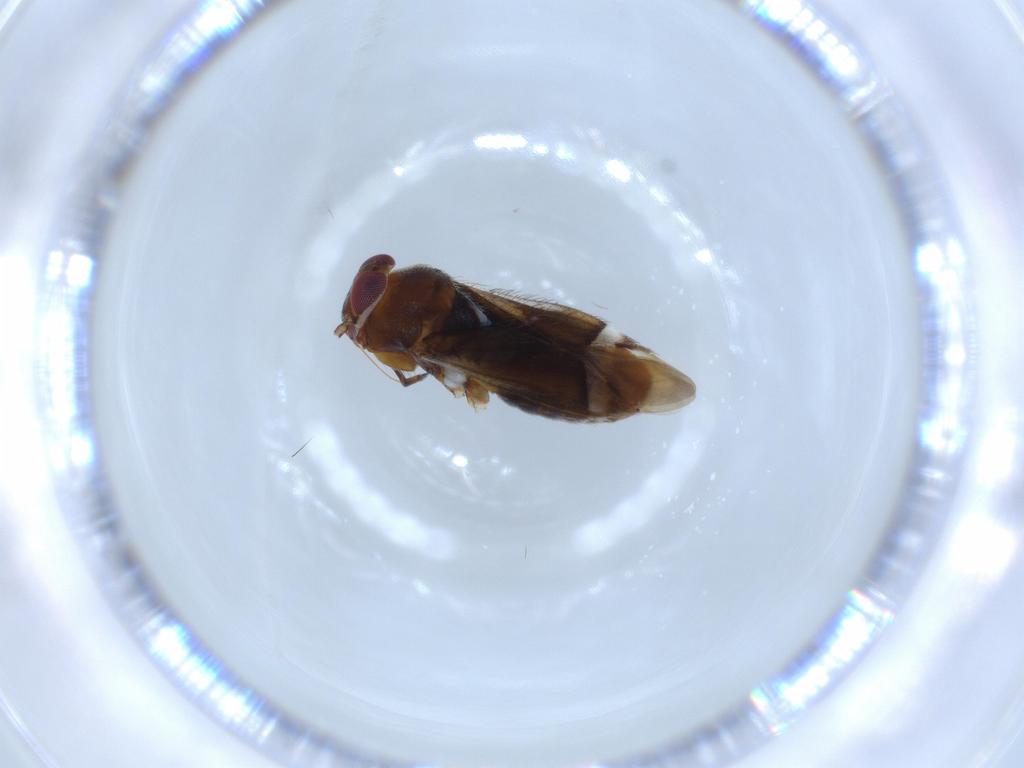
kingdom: Animalia
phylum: Arthropoda
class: Insecta
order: Hemiptera
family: Miridae
